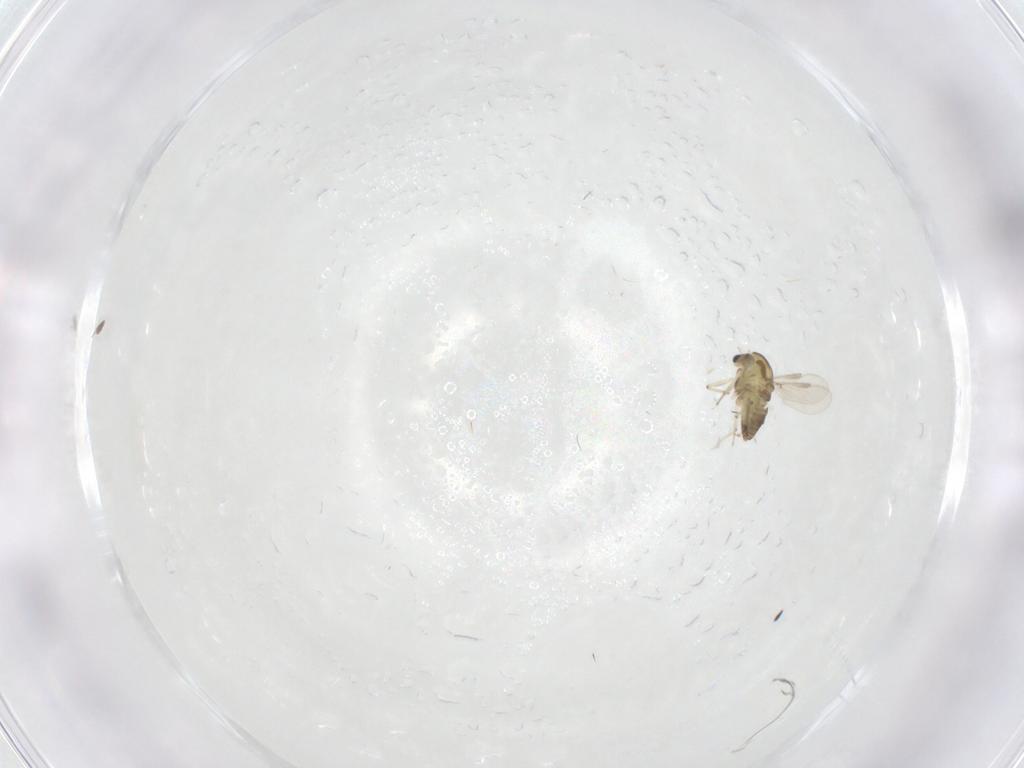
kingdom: Animalia
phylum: Arthropoda
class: Insecta
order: Diptera
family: Chironomidae
